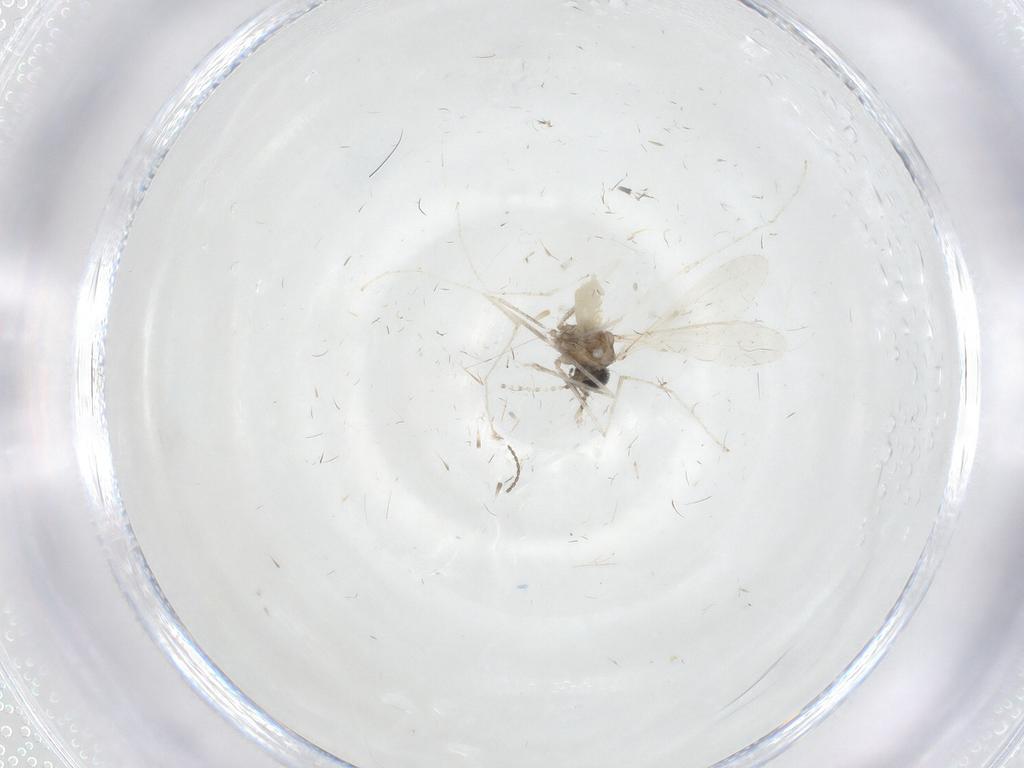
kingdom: Animalia
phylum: Arthropoda
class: Insecta
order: Diptera
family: Cecidomyiidae
